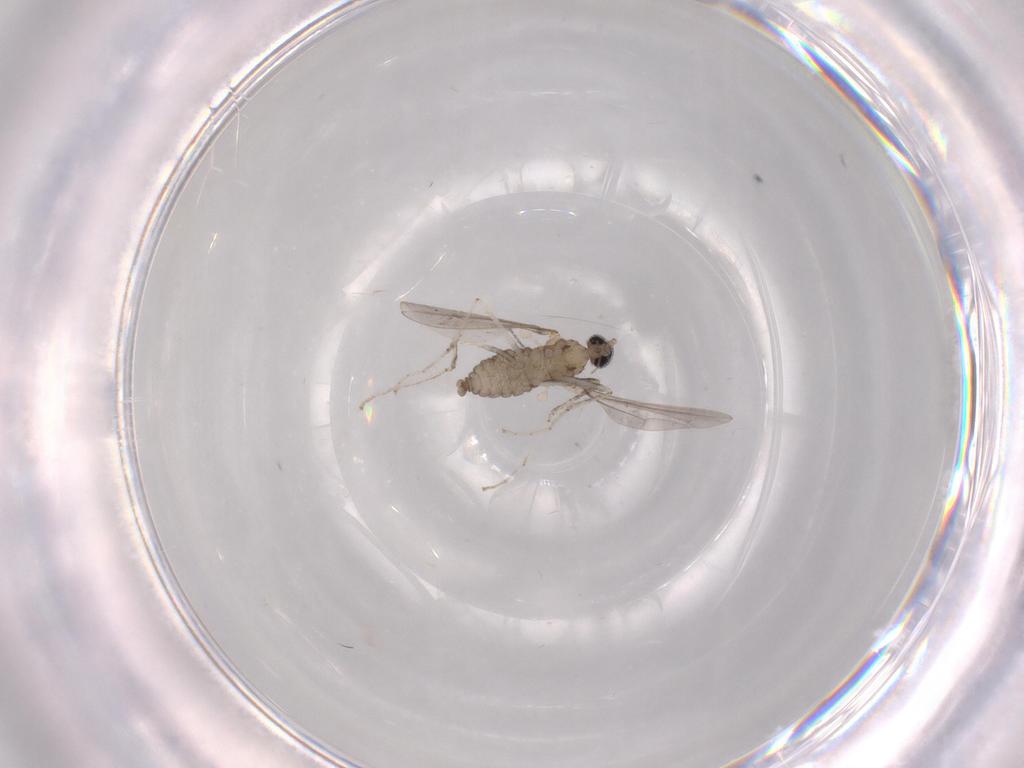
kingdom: Animalia
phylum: Arthropoda
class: Insecta
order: Diptera
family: Cecidomyiidae
